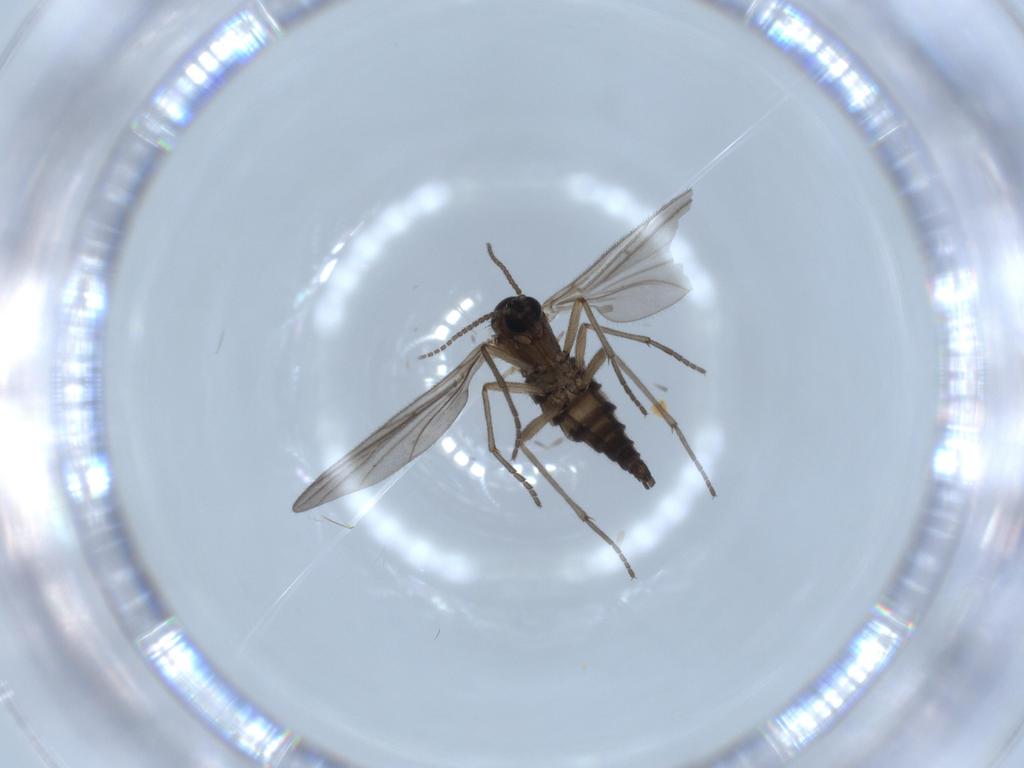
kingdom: Animalia
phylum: Arthropoda
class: Insecta
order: Diptera
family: Sciaridae
